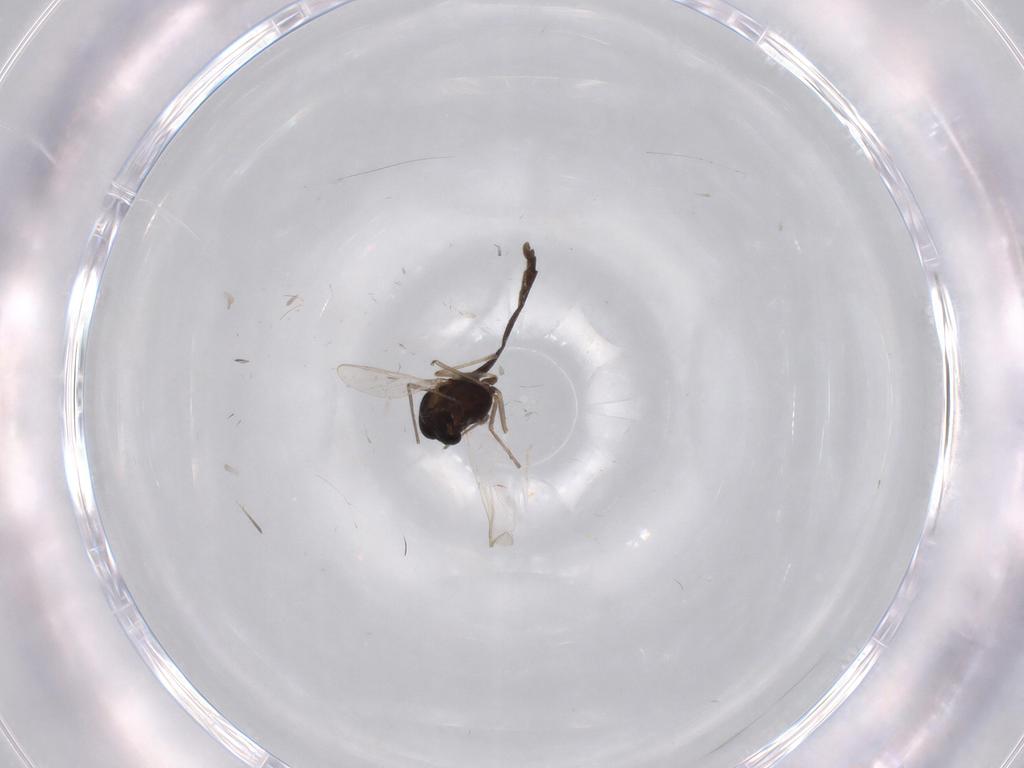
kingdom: Animalia
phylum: Arthropoda
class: Insecta
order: Diptera
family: Chironomidae
